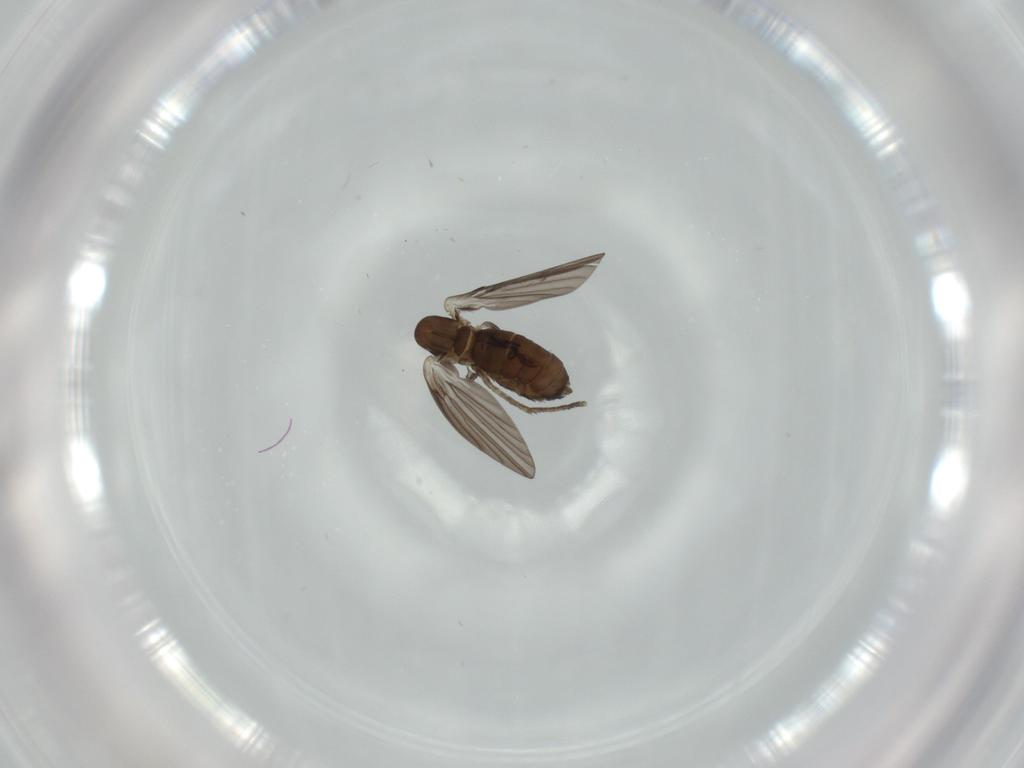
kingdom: Animalia
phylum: Arthropoda
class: Insecta
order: Diptera
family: Psychodidae
